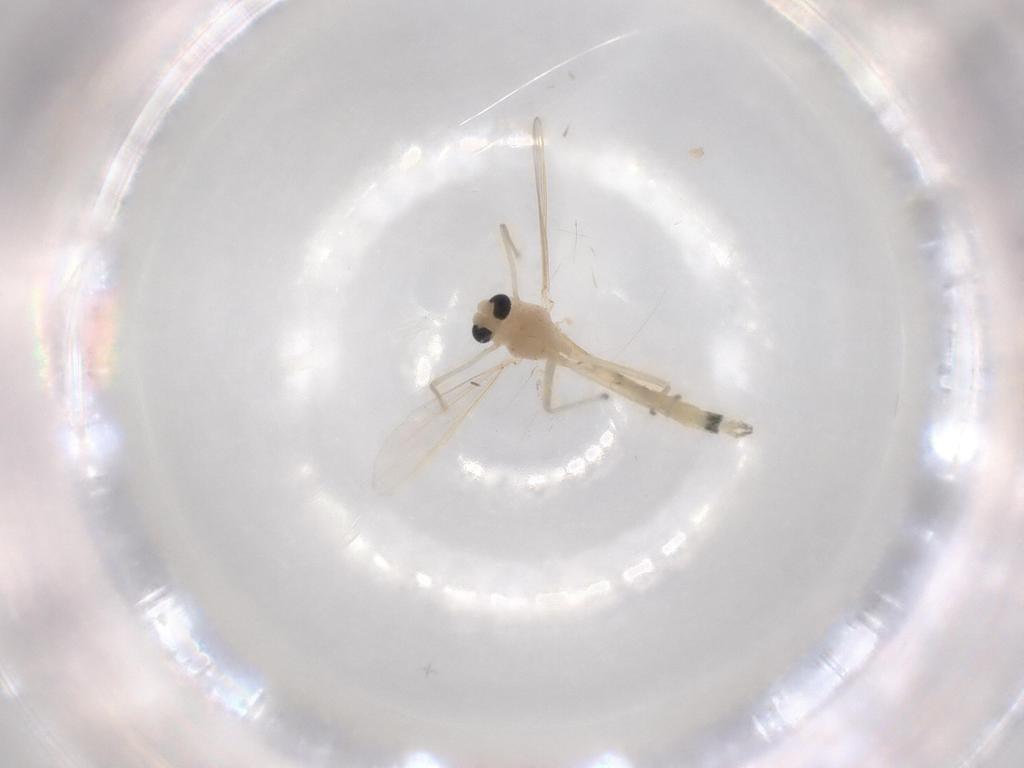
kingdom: Animalia
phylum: Arthropoda
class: Insecta
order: Diptera
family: Chironomidae
